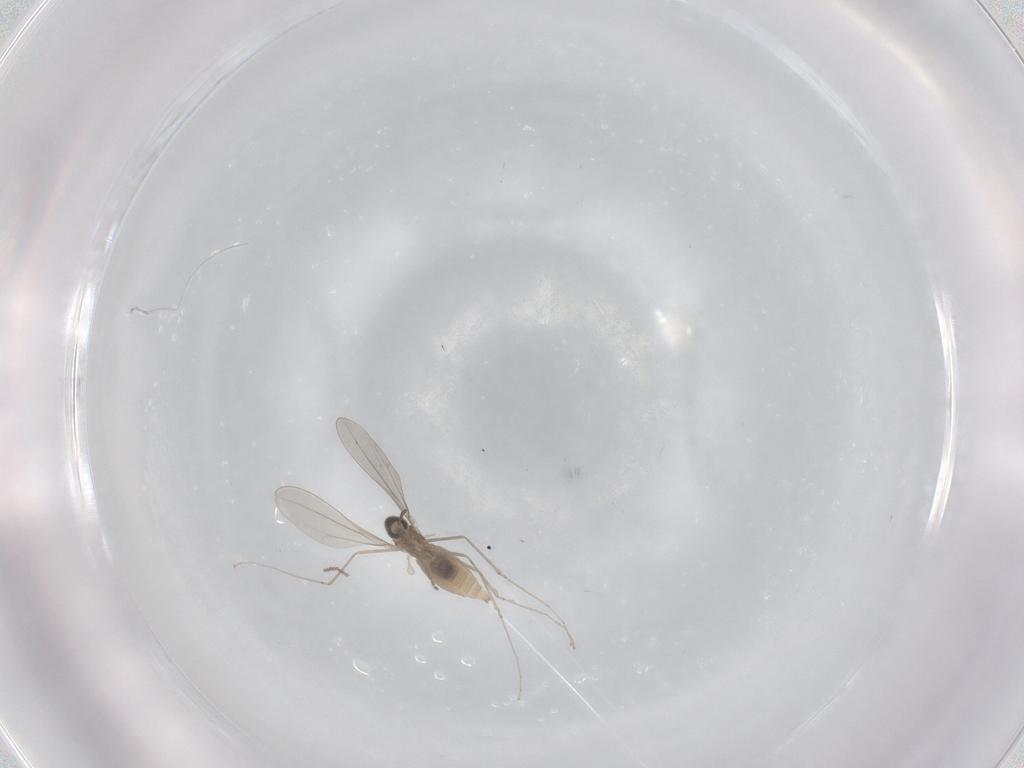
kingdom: Animalia
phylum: Arthropoda
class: Insecta
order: Diptera
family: Cecidomyiidae
